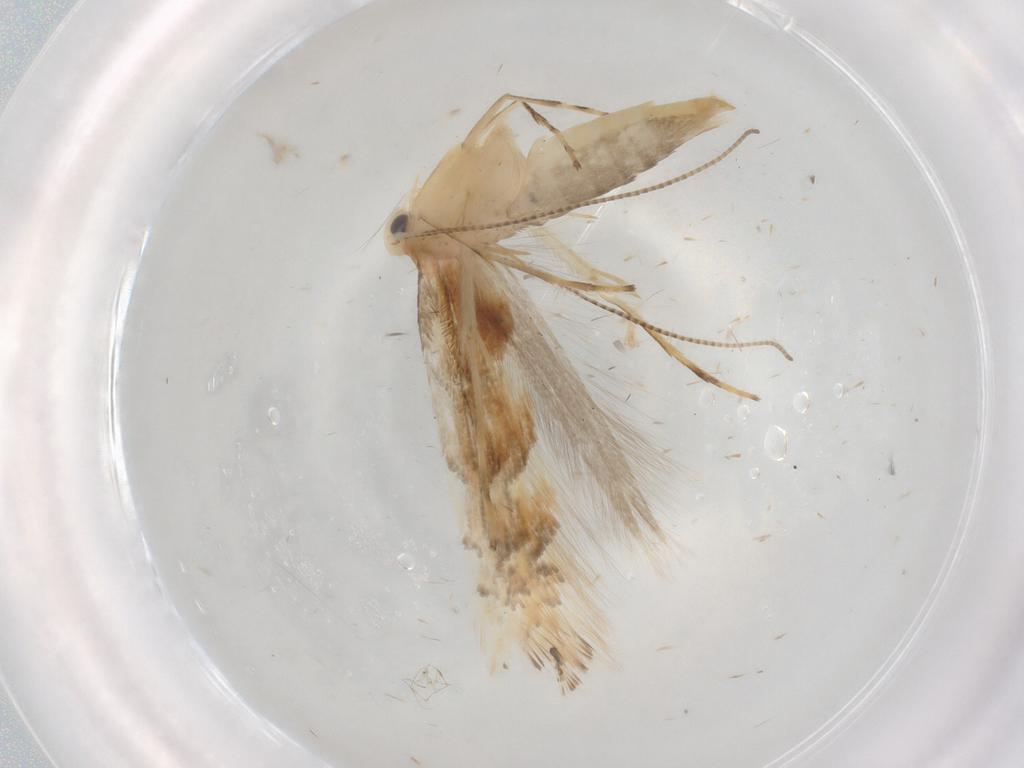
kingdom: Animalia
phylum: Arthropoda
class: Insecta
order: Lepidoptera
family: Gracillariidae
